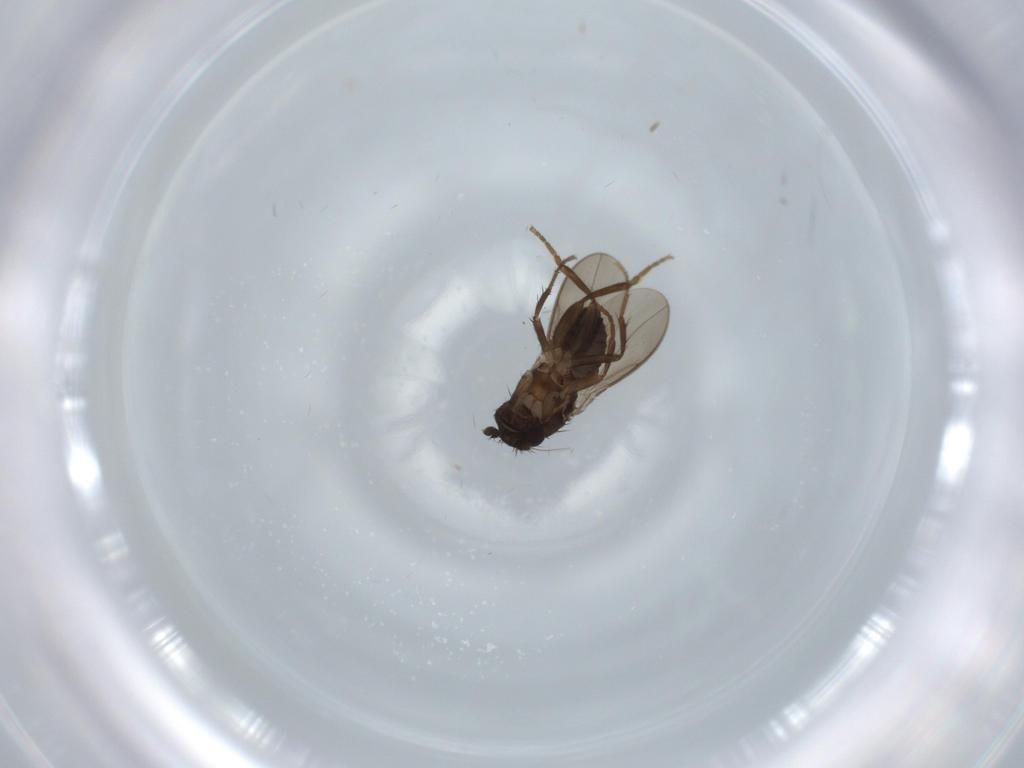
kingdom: Animalia
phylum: Arthropoda
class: Insecta
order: Diptera
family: Sphaeroceridae
